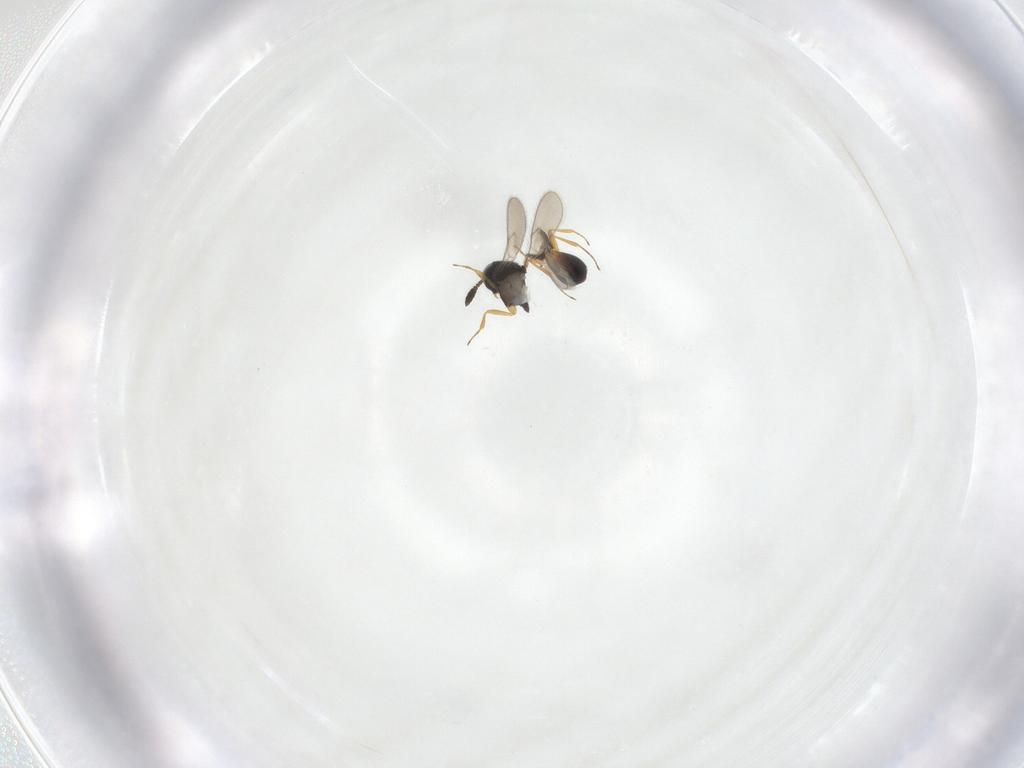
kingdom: Animalia
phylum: Arthropoda
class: Insecta
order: Hymenoptera
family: Scelionidae
